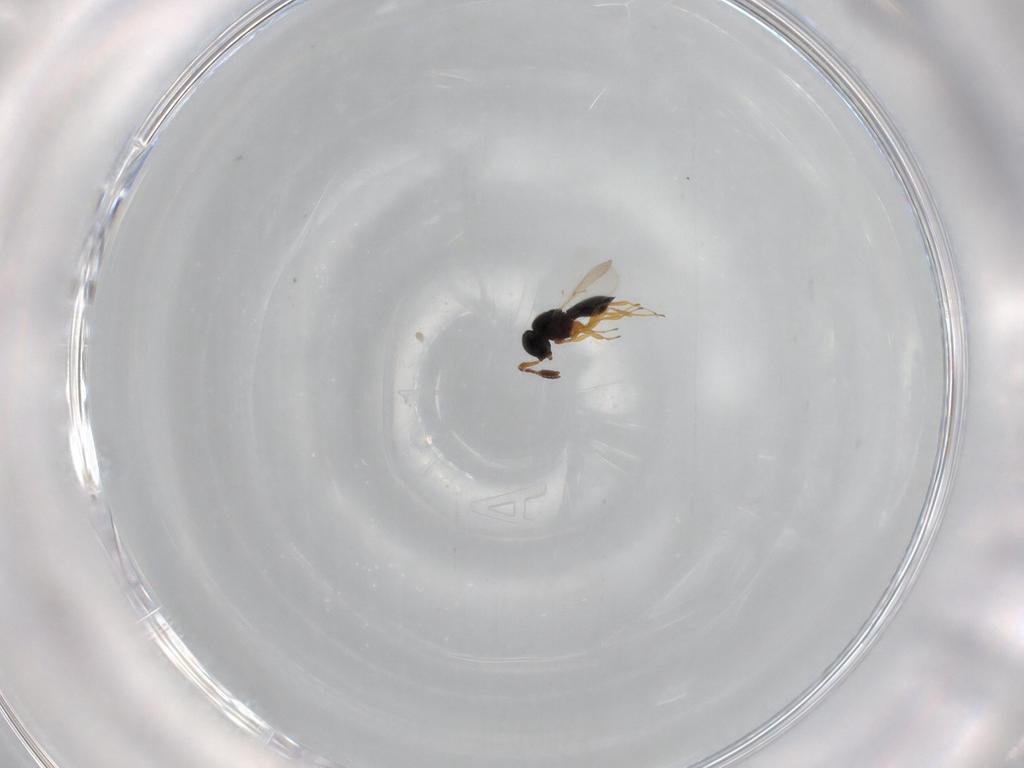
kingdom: Animalia
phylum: Arthropoda
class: Insecta
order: Hymenoptera
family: Scelionidae
